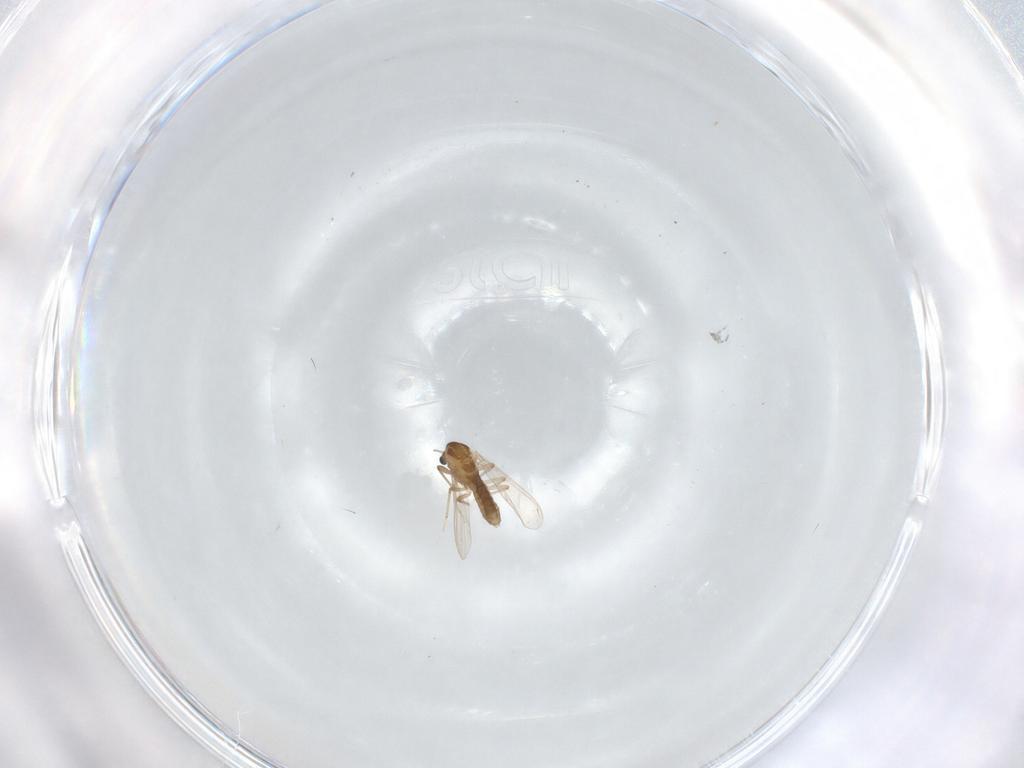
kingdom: Animalia
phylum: Arthropoda
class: Insecta
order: Diptera
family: Chironomidae
